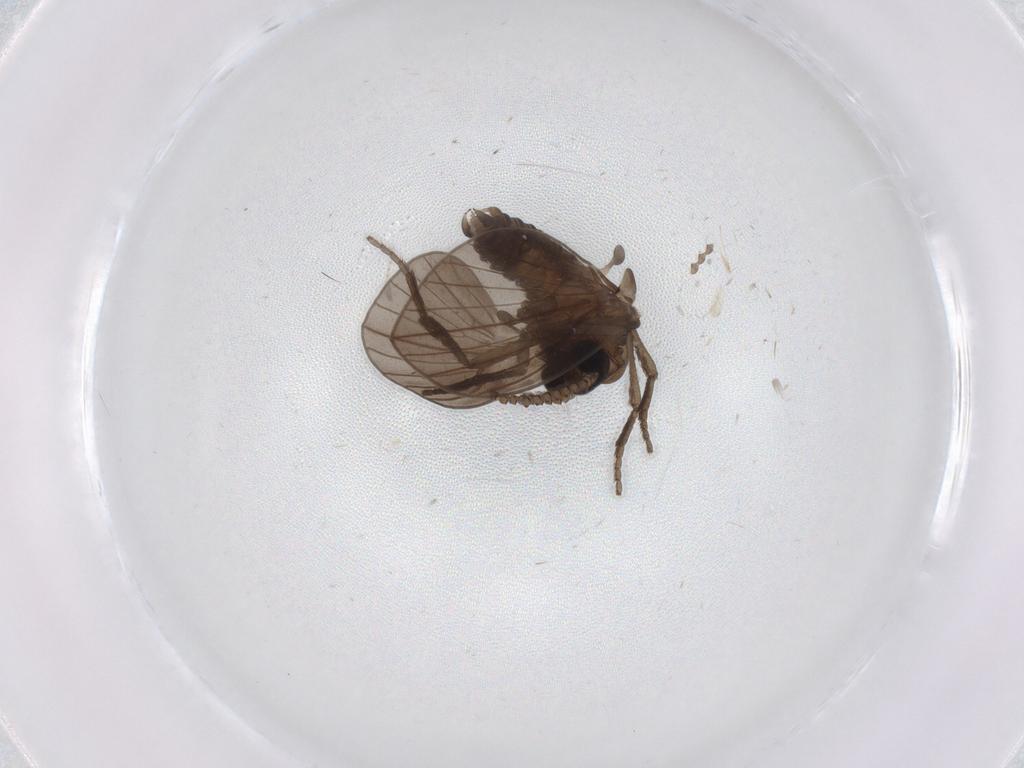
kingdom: Animalia
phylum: Arthropoda
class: Insecta
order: Diptera
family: Psychodidae
